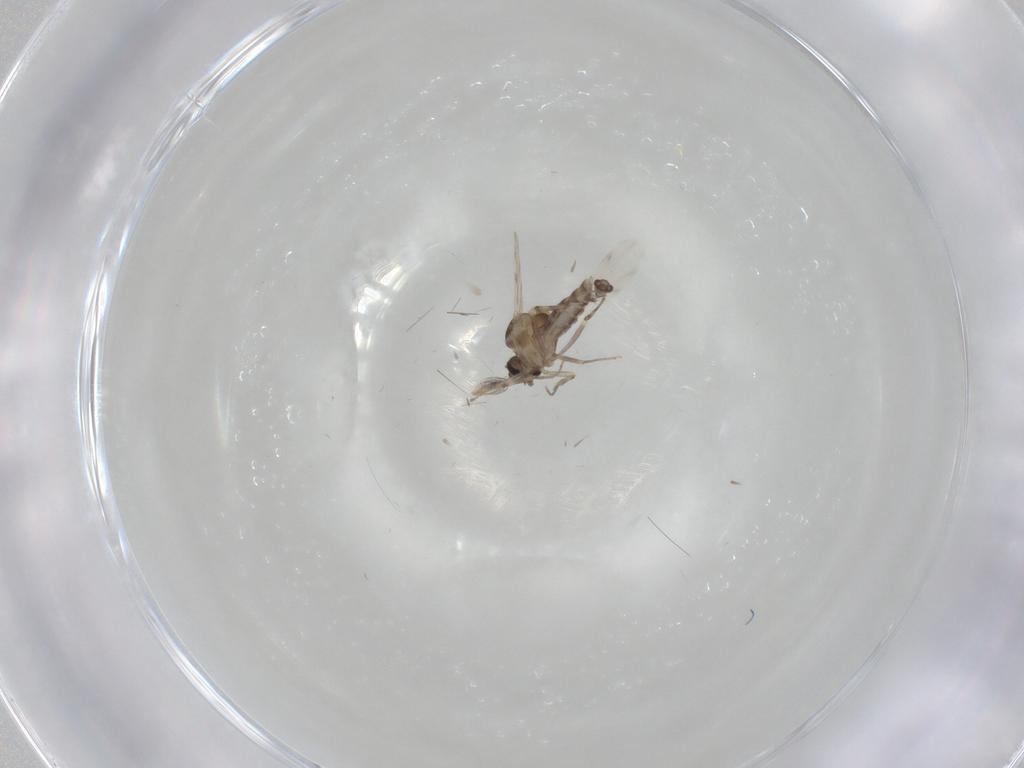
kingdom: Animalia
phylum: Arthropoda
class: Insecta
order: Diptera
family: Ceratopogonidae
